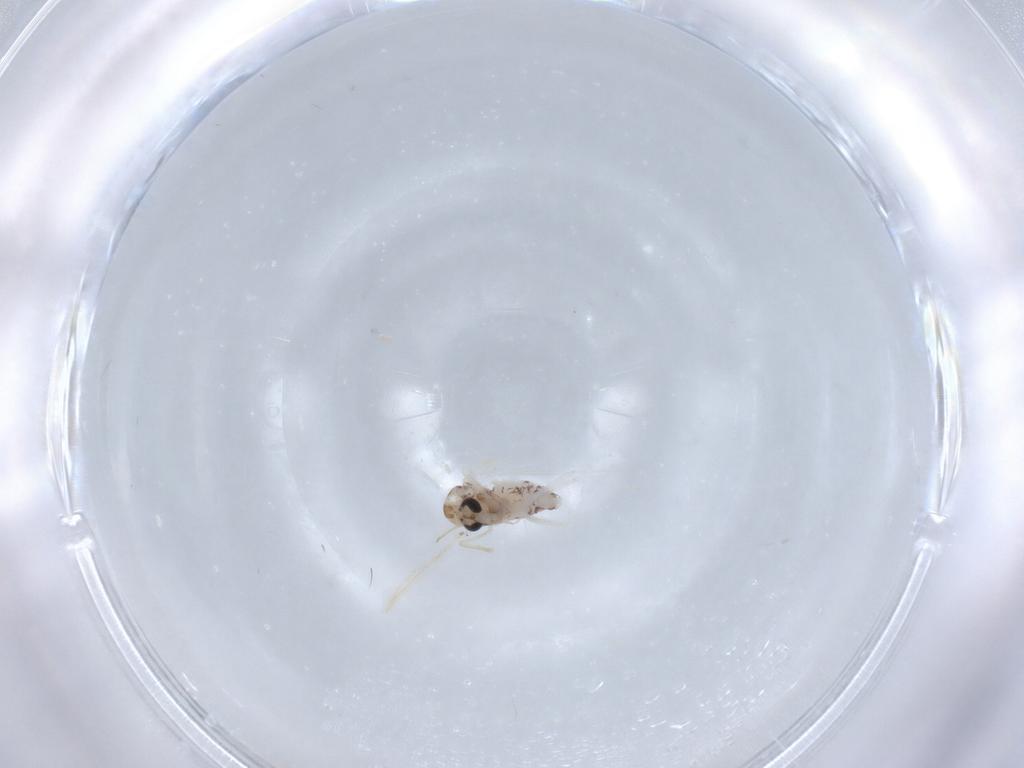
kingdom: Animalia
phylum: Arthropoda
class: Insecta
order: Diptera
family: Chironomidae
